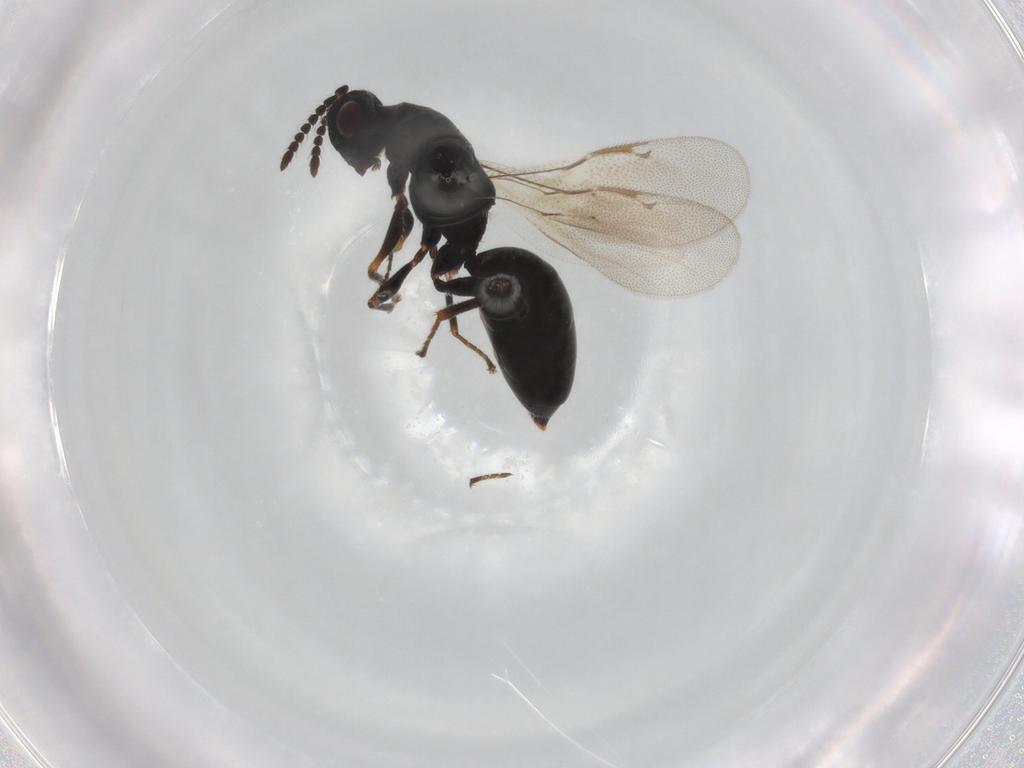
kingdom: Animalia
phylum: Arthropoda
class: Insecta
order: Hymenoptera
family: Eurytomidae
